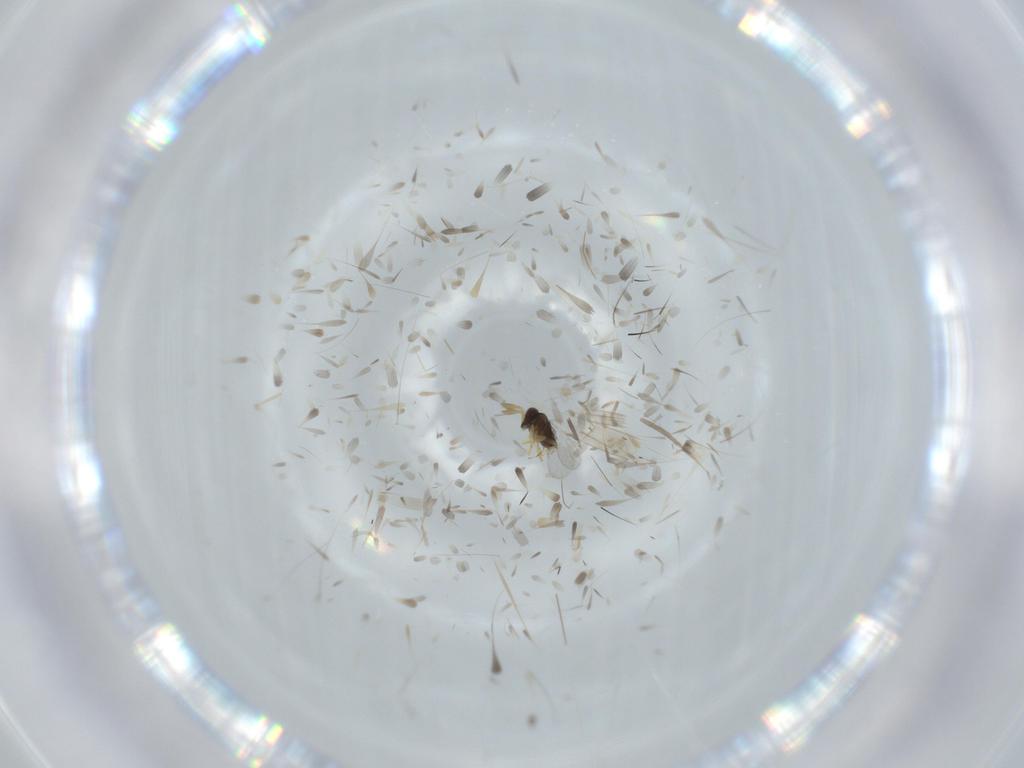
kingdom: Animalia
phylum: Arthropoda
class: Insecta
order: Hymenoptera
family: Encyrtidae
